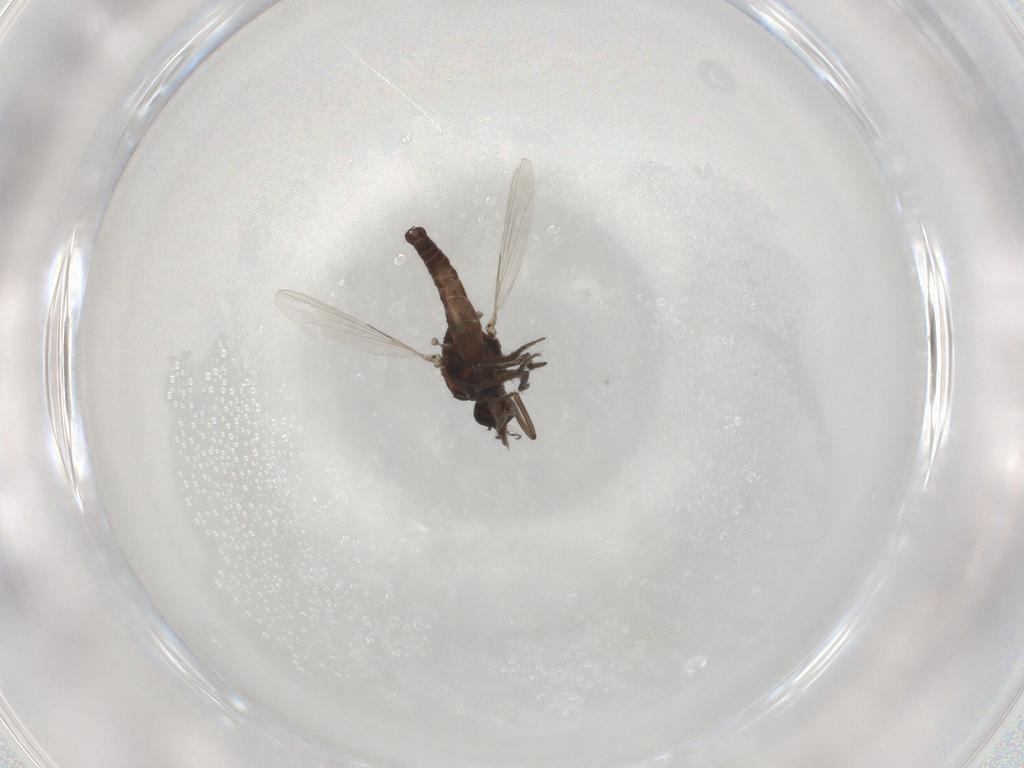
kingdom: Animalia
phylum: Arthropoda
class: Insecta
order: Diptera
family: Ceratopogonidae
